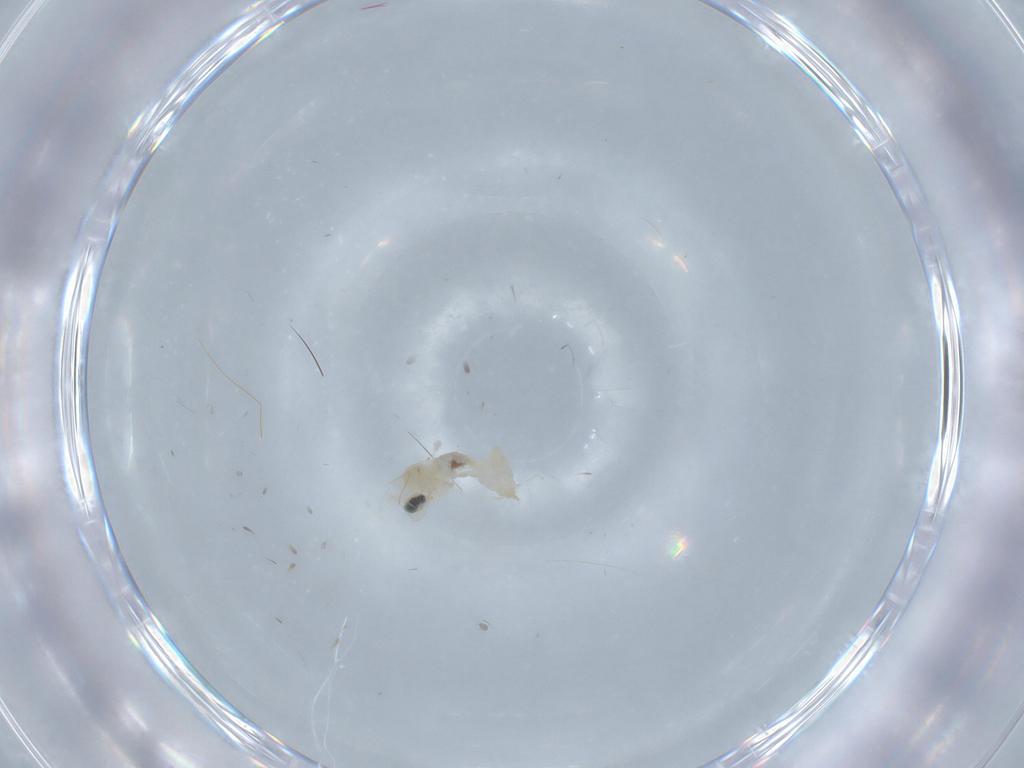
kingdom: Animalia
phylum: Arthropoda
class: Insecta
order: Diptera
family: Cecidomyiidae
